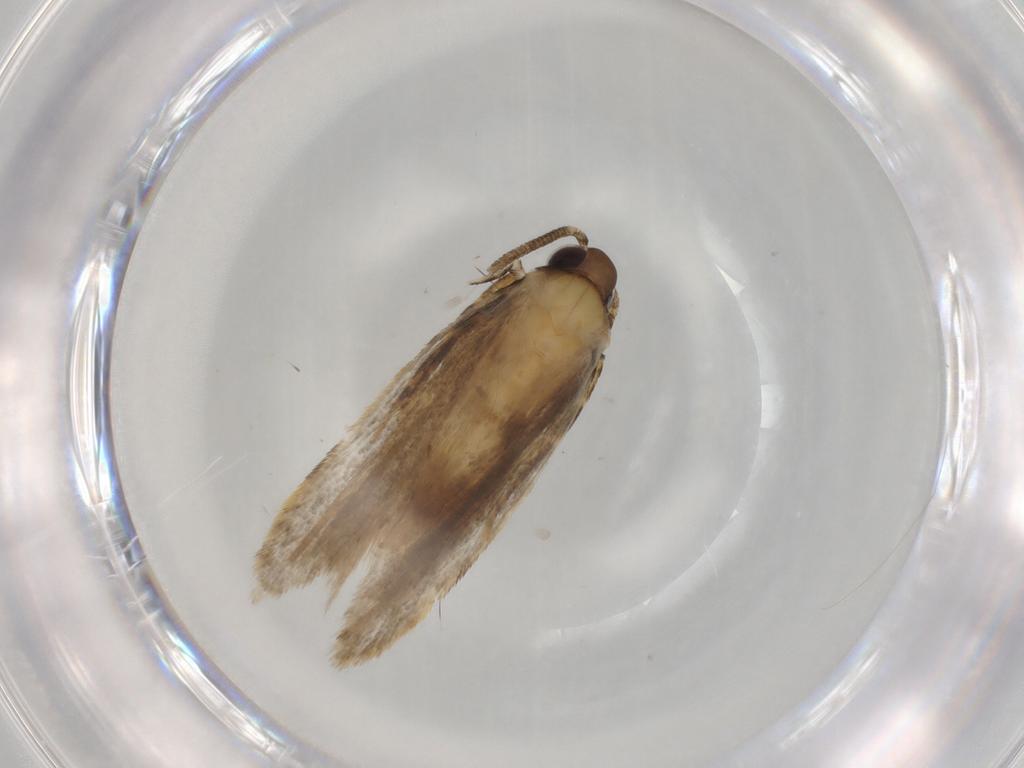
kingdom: Animalia
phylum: Arthropoda
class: Insecta
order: Lepidoptera
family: Autostichidae
